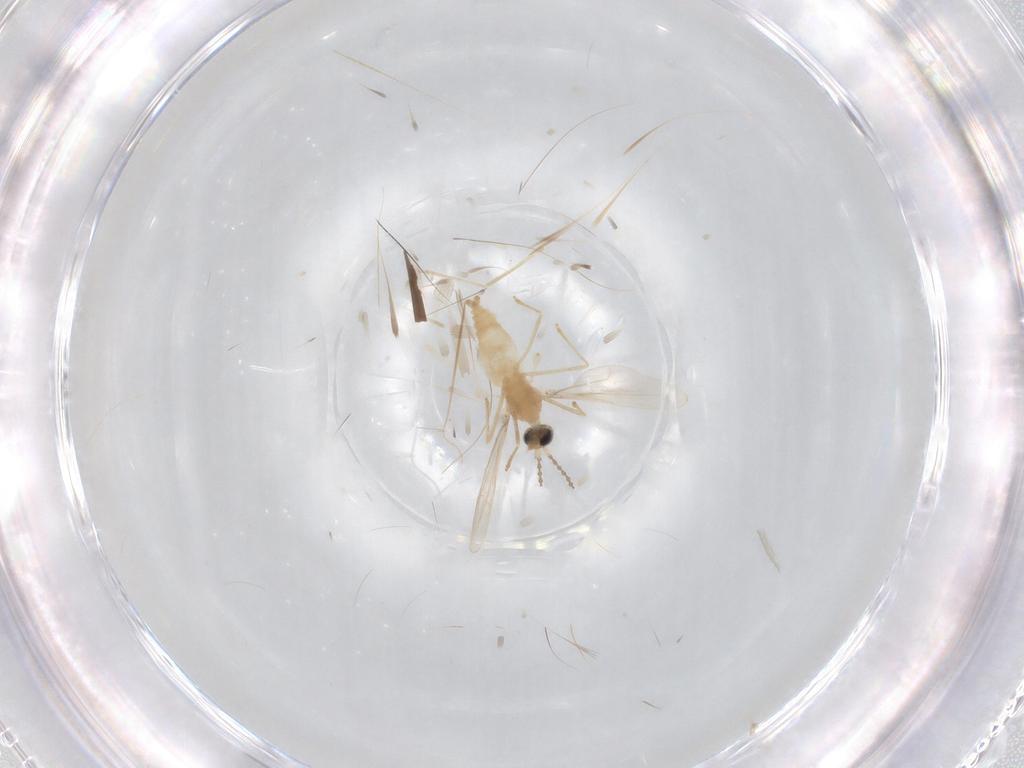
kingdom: Animalia
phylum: Arthropoda
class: Insecta
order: Diptera
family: Cecidomyiidae
